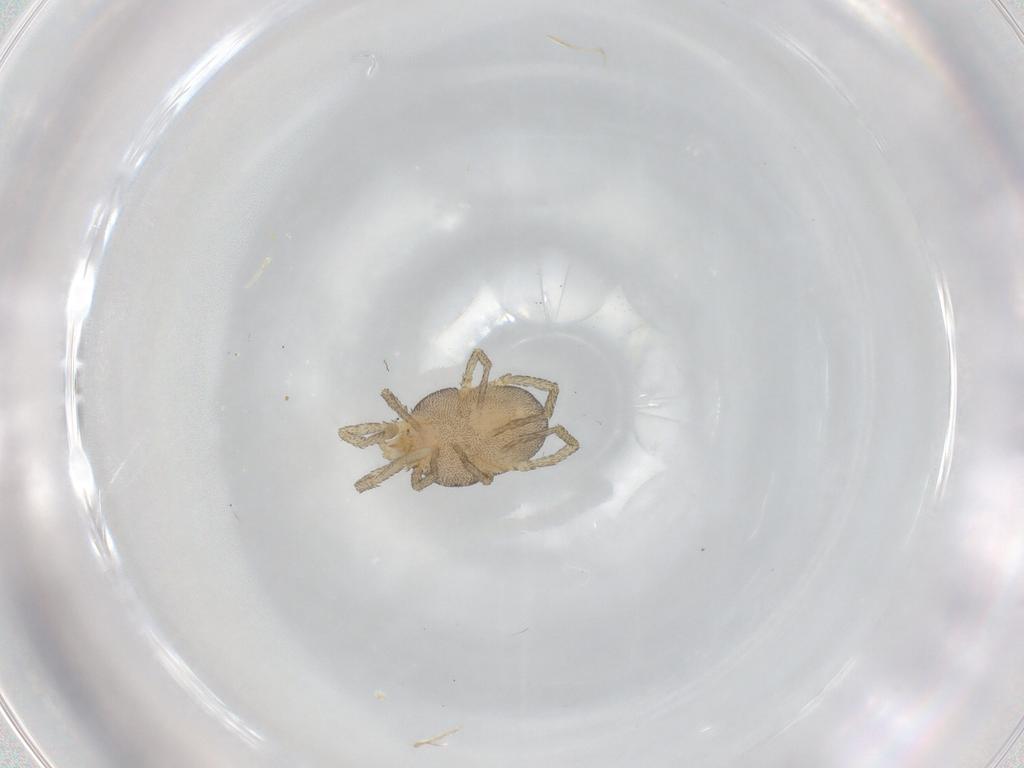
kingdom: Animalia
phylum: Arthropoda
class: Arachnida
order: Trombidiformes
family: Erythraeidae
